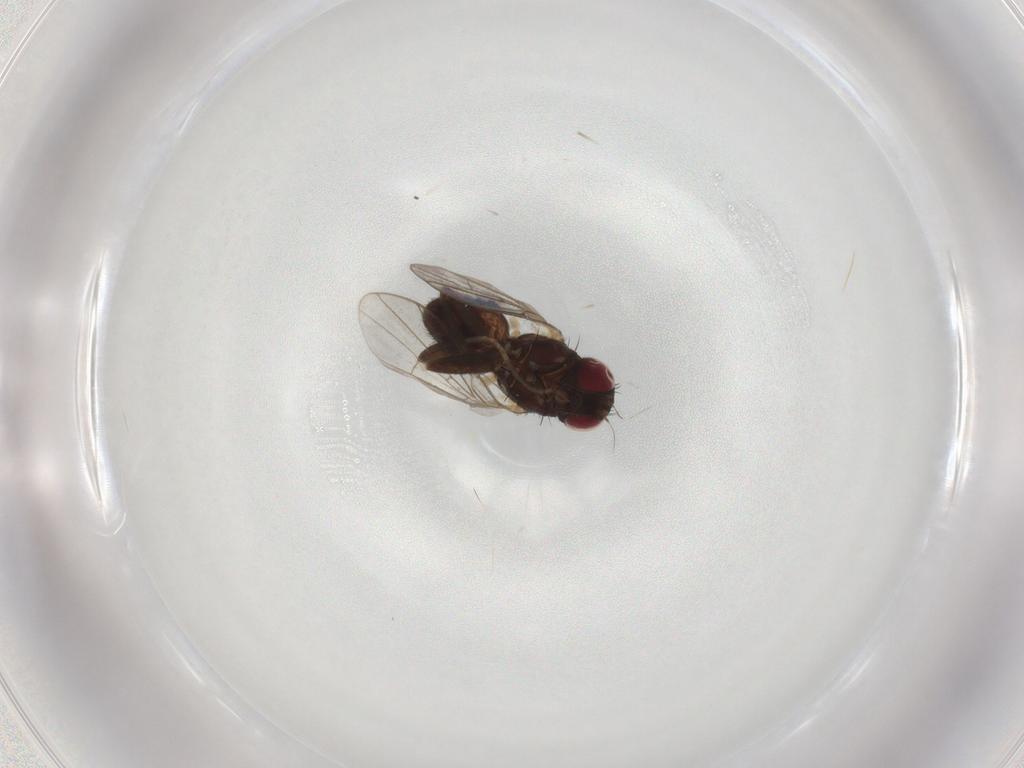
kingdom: Animalia
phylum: Arthropoda
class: Insecta
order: Diptera
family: Agromyzidae
